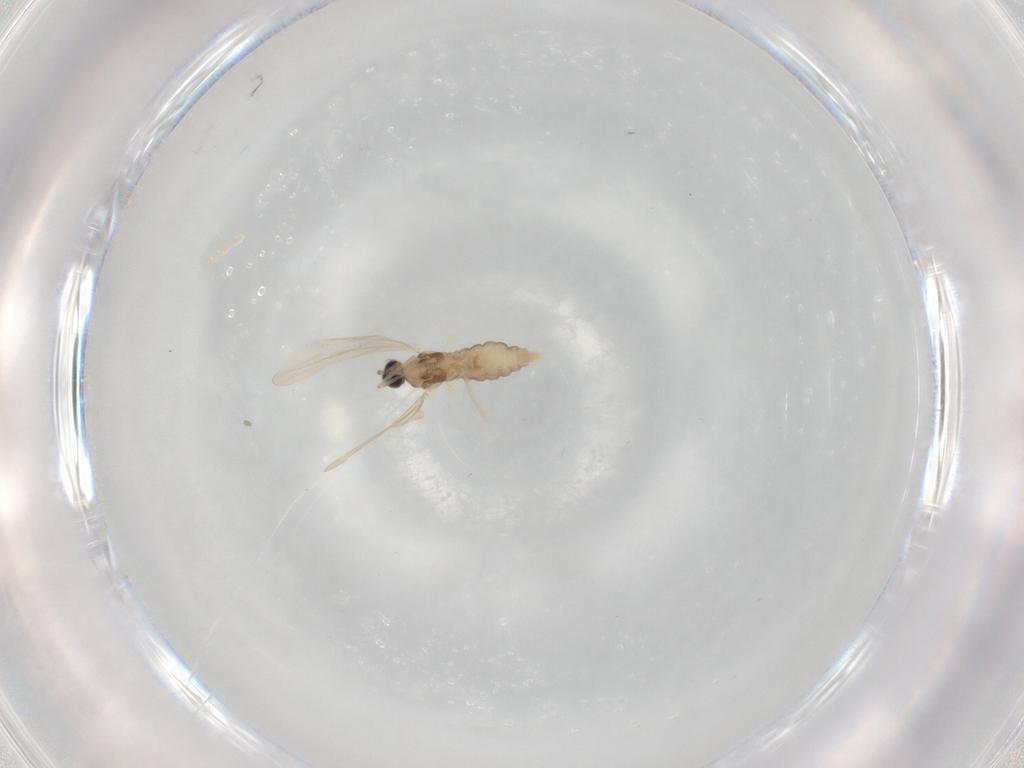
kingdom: Animalia
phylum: Arthropoda
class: Insecta
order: Diptera
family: Cecidomyiidae
